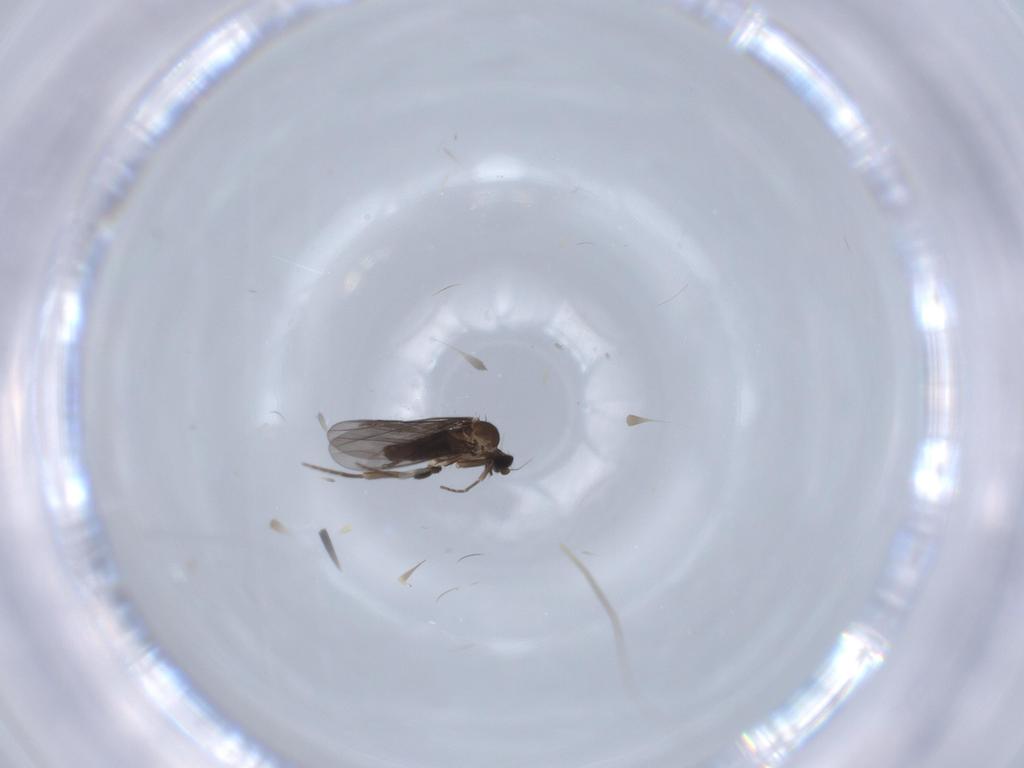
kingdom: Animalia
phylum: Arthropoda
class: Insecta
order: Diptera
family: Phoridae
